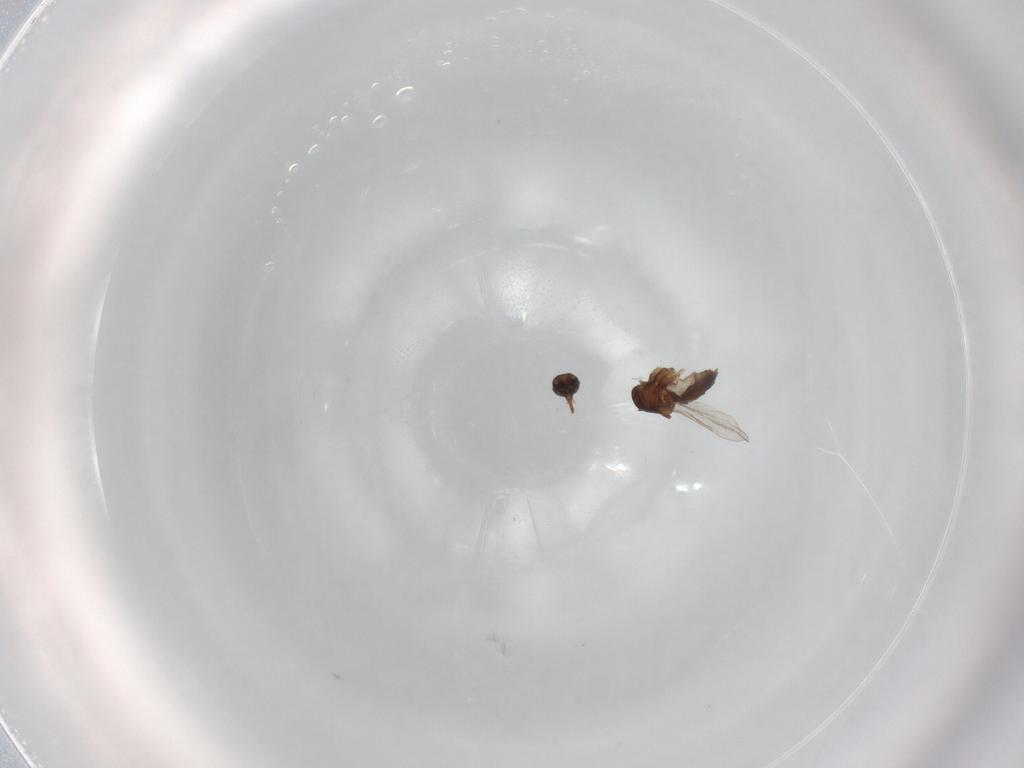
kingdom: Animalia
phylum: Arthropoda
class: Insecta
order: Diptera
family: Ceratopogonidae
